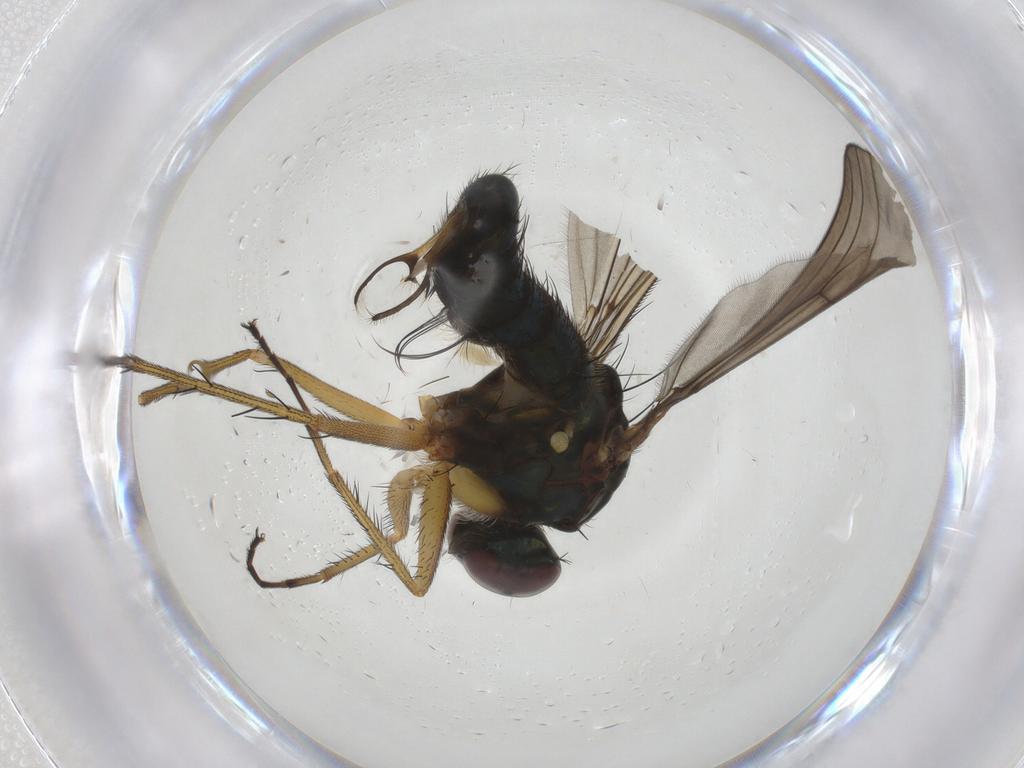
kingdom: Animalia
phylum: Arthropoda
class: Insecta
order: Diptera
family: Dolichopodidae
